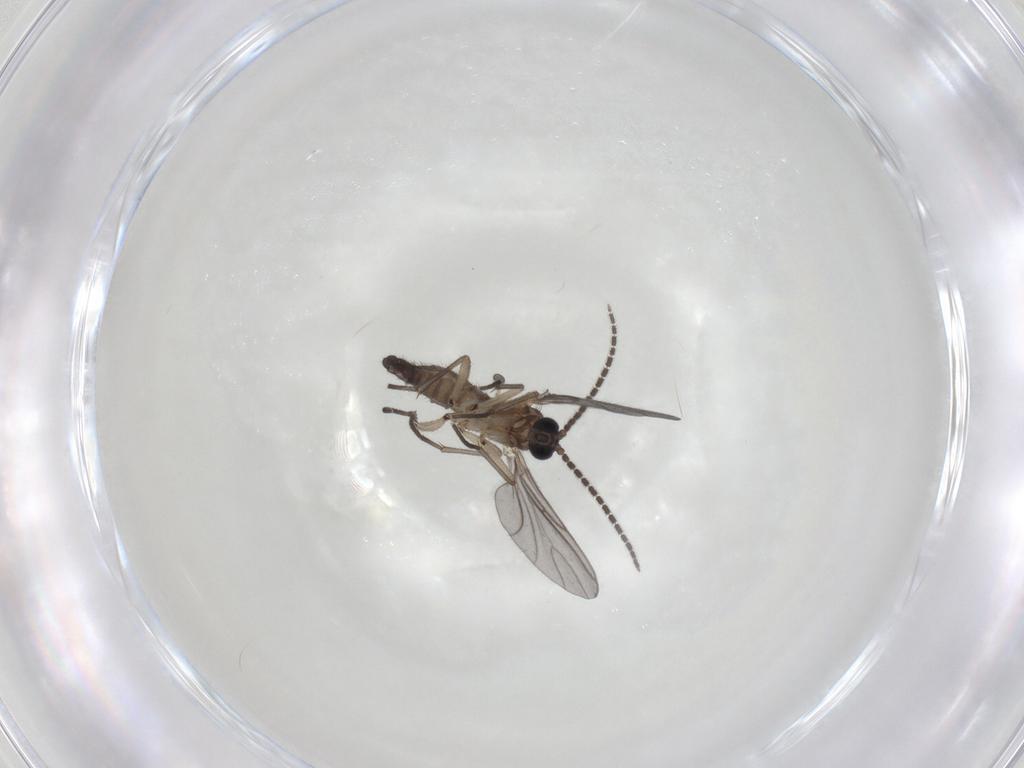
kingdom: Animalia
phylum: Arthropoda
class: Insecta
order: Diptera
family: Sciaridae
